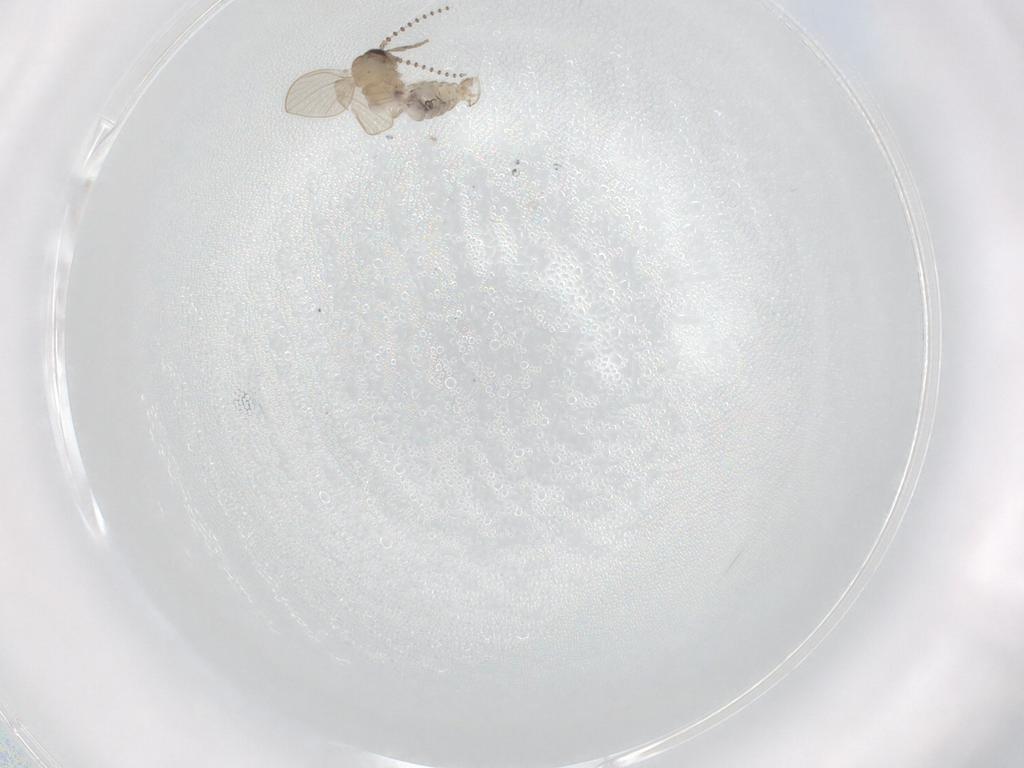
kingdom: Animalia
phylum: Arthropoda
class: Insecta
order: Diptera
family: Psychodidae
